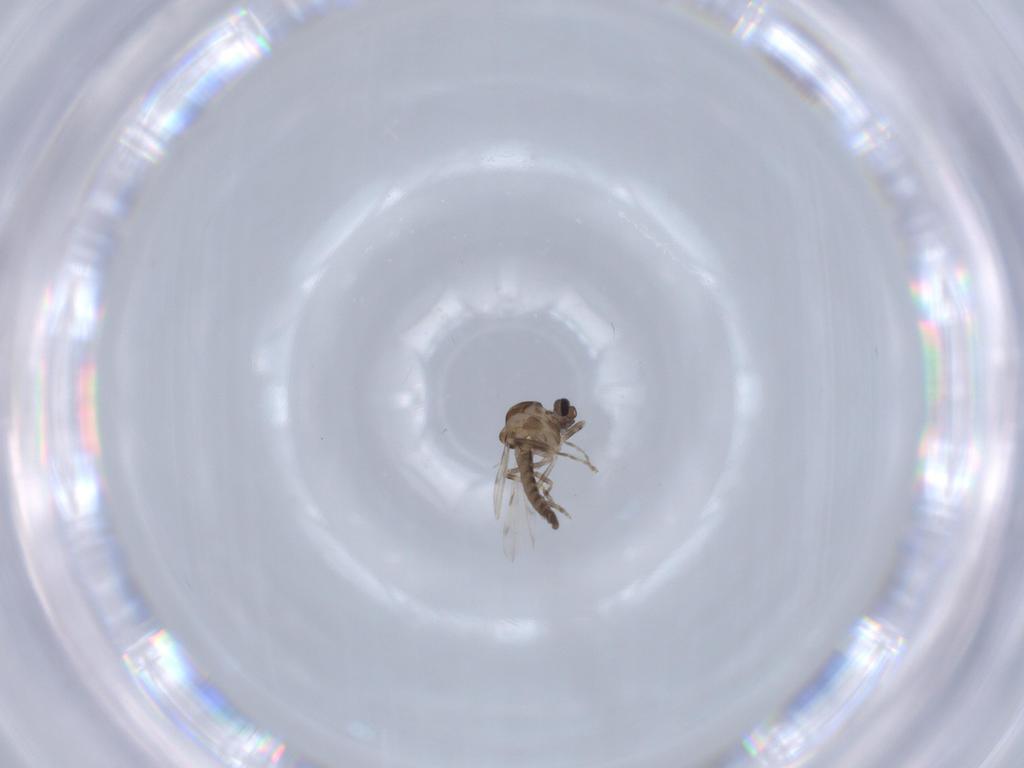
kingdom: Animalia
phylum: Arthropoda
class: Insecta
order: Diptera
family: Ceratopogonidae
